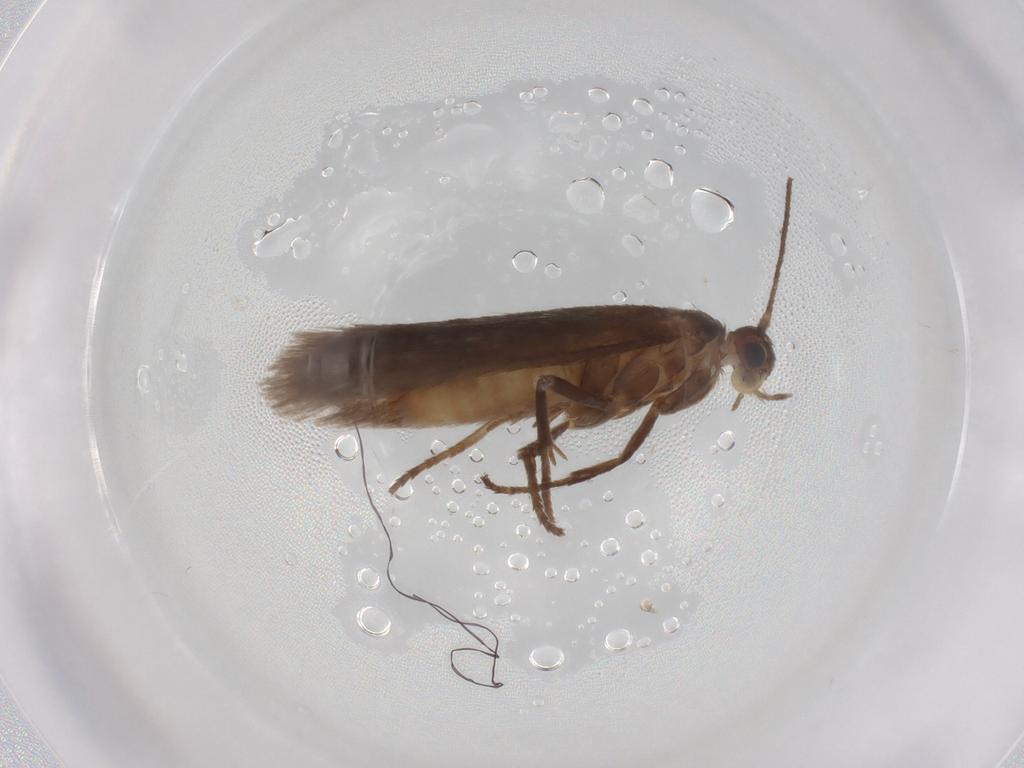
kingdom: Animalia
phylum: Arthropoda
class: Insecta
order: Lepidoptera
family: Limacodidae
